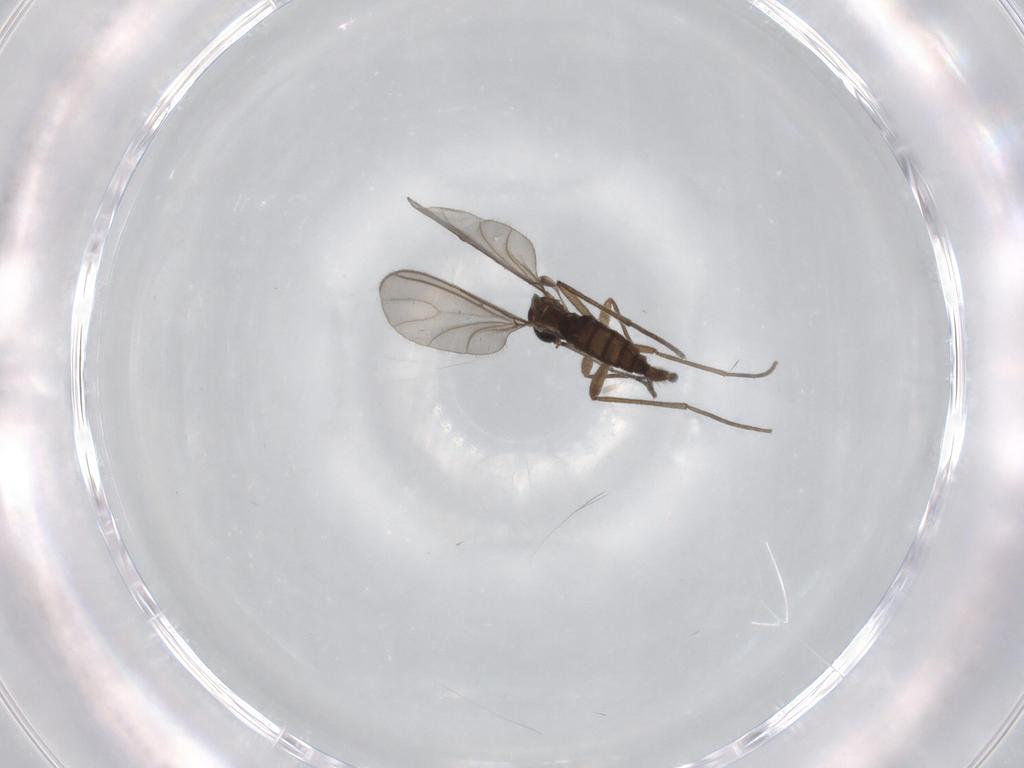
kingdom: Animalia
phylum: Arthropoda
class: Insecta
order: Diptera
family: Sciaridae
